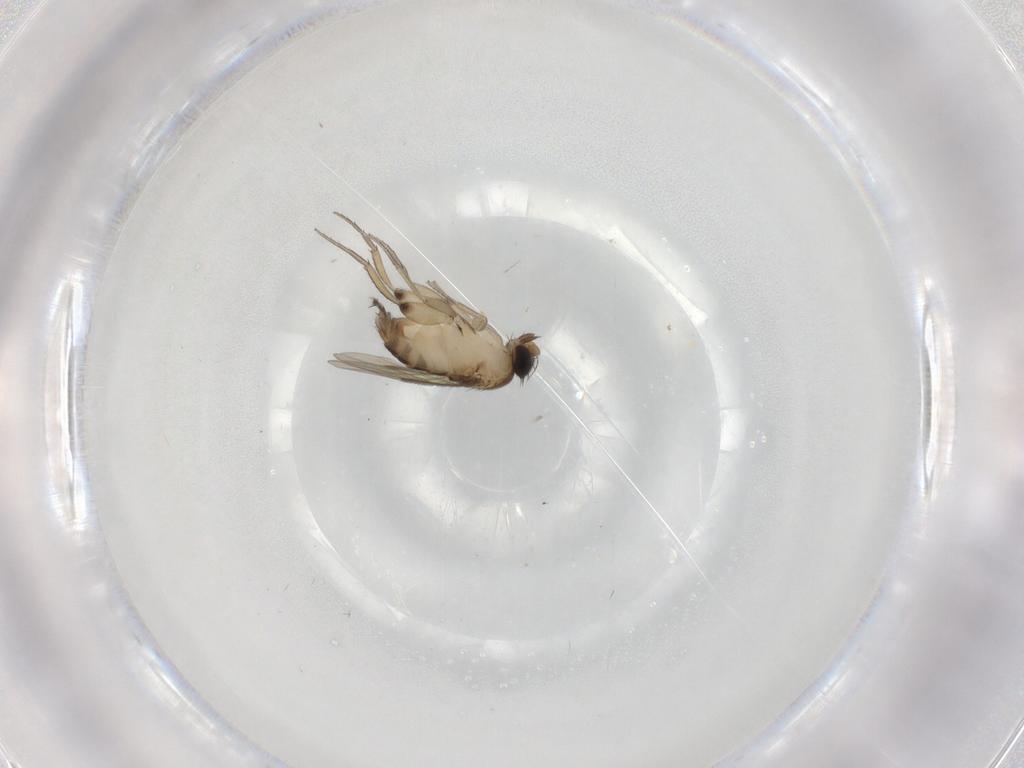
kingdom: Animalia
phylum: Arthropoda
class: Insecta
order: Diptera
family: Phoridae
